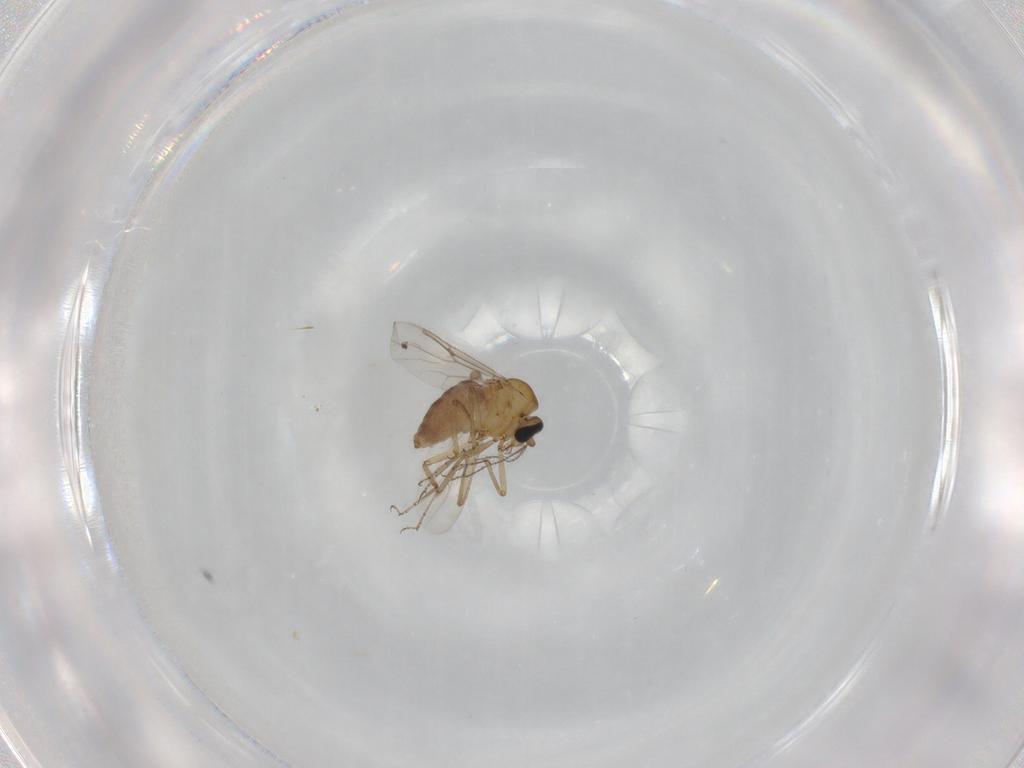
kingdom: Animalia
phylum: Arthropoda
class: Insecta
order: Diptera
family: Ceratopogonidae
